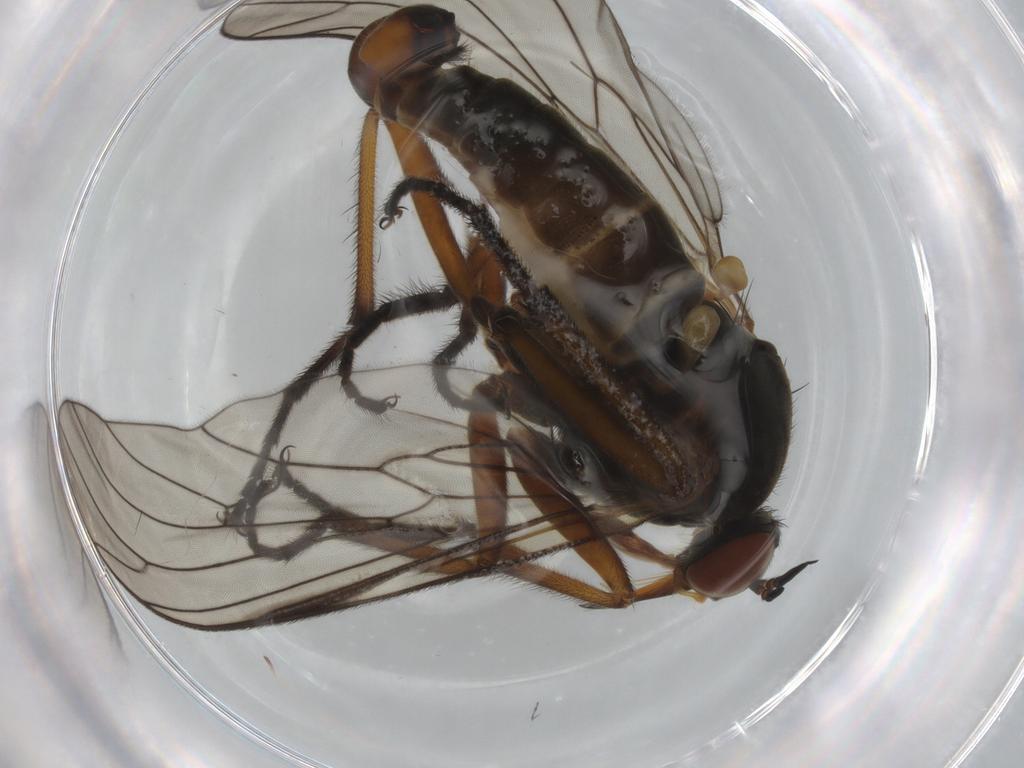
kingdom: Animalia
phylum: Arthropoda
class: Insecta
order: Diptera
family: Empididae
